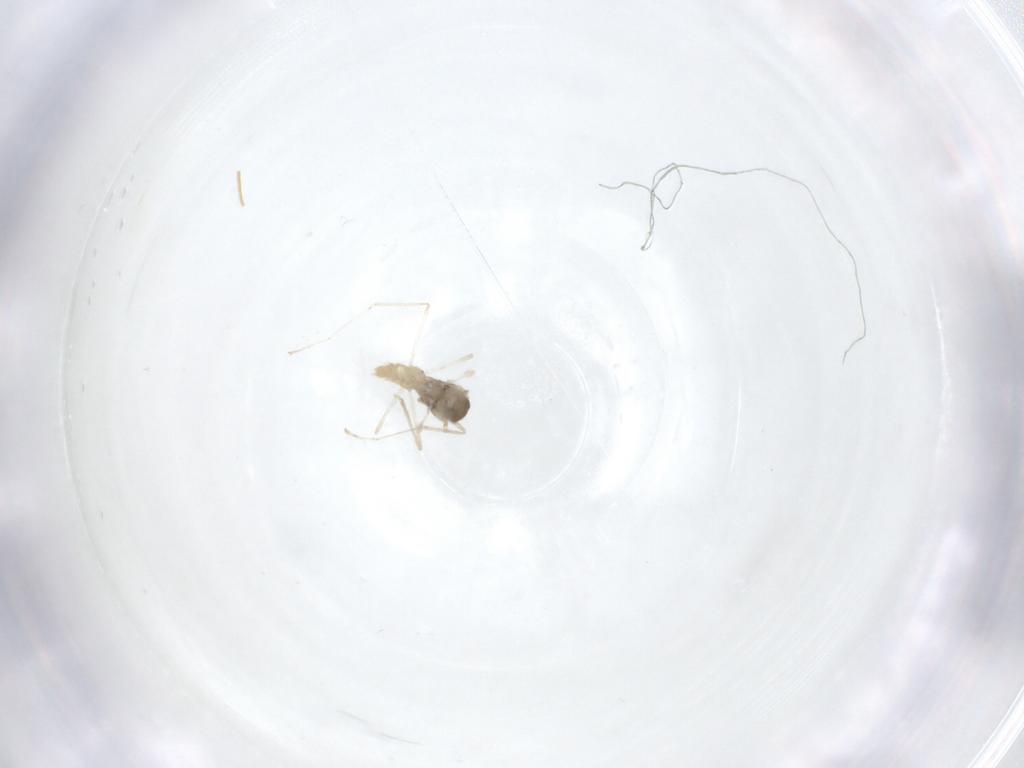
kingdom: Animalia
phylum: Arthropoda
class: Insecta
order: Diptera
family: Cecidomyiidae
